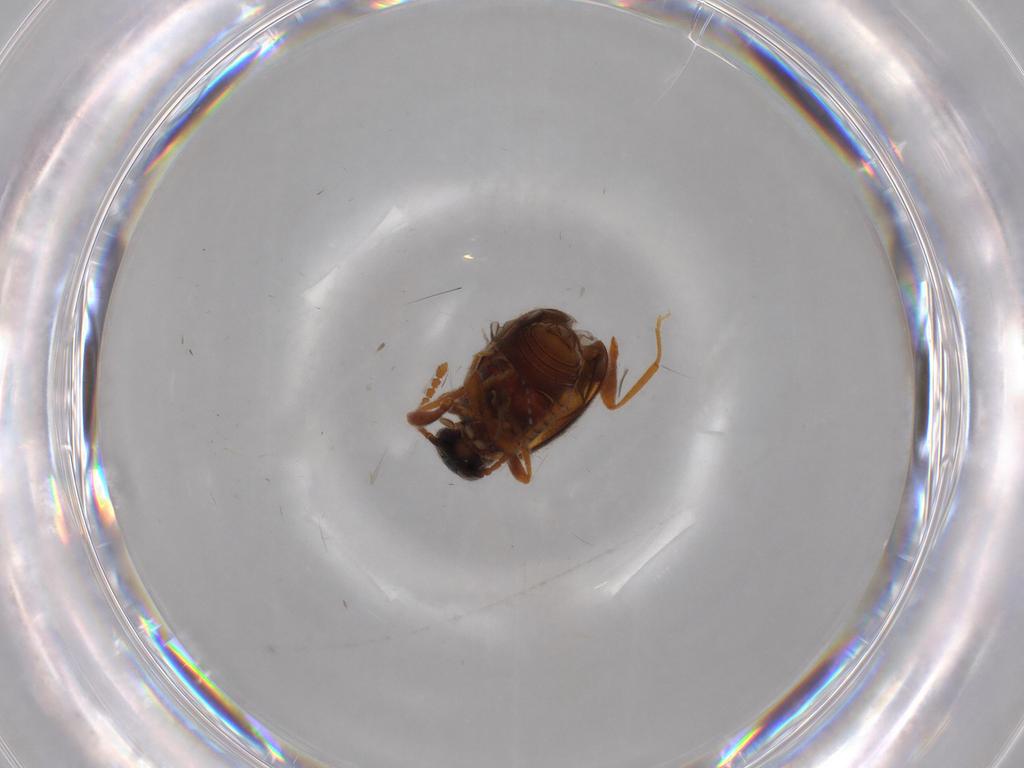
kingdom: Animalia
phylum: Arthropoda
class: Insecta
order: Coleoptera
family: Aderidae
